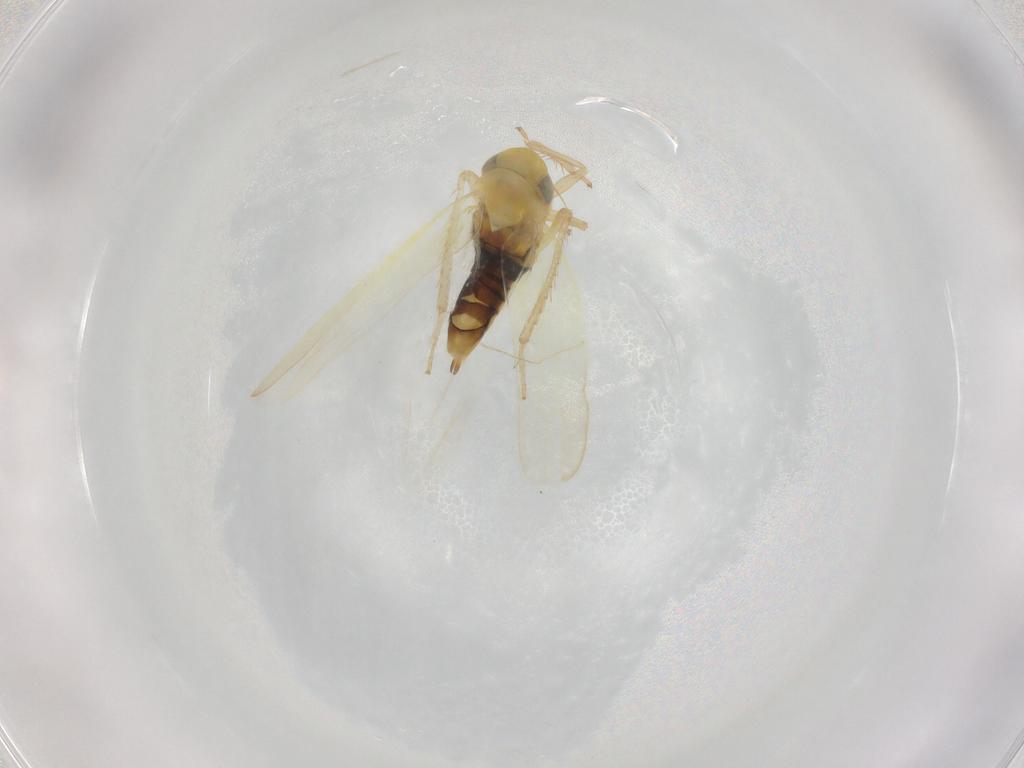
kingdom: Animalia
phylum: Arthropoda
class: Insecta
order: Hemiptera
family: Cicadellidae
